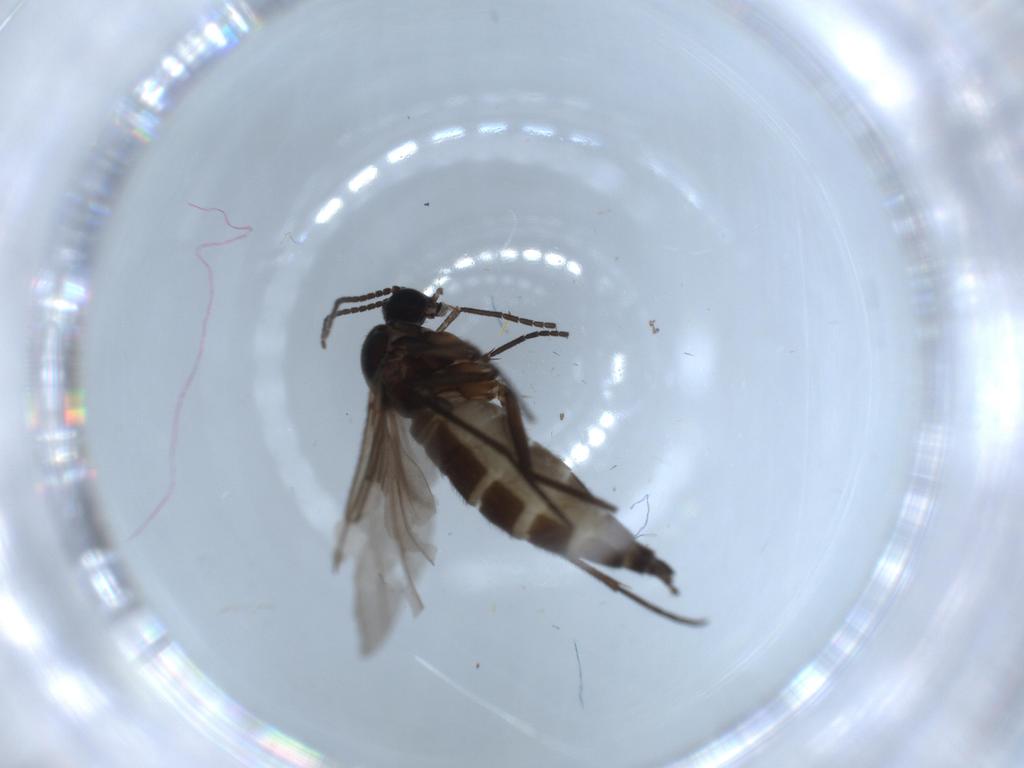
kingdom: Animalia
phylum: Arthropoda
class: Insecta
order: Diptera
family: Sciaridae
